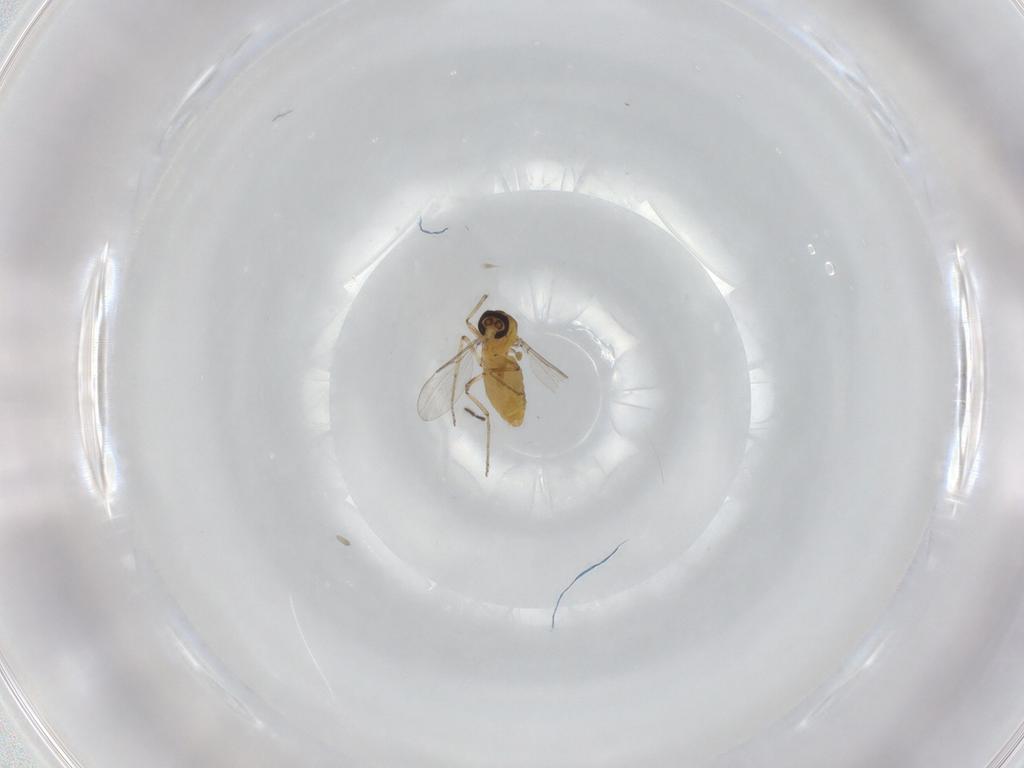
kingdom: Animalia
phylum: Arthropoda
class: Insecta
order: Diptera
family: Ceratopogonidae
